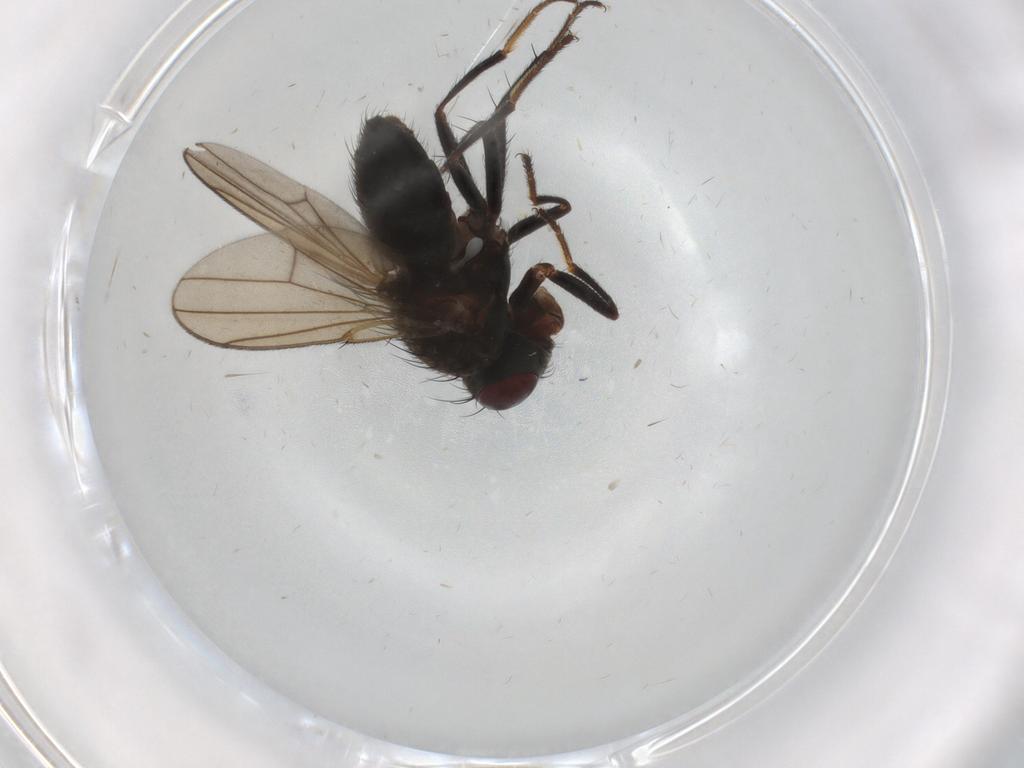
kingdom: Animalia
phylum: Arthropoda
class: Insecta
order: Diptera
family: Ephydridae
